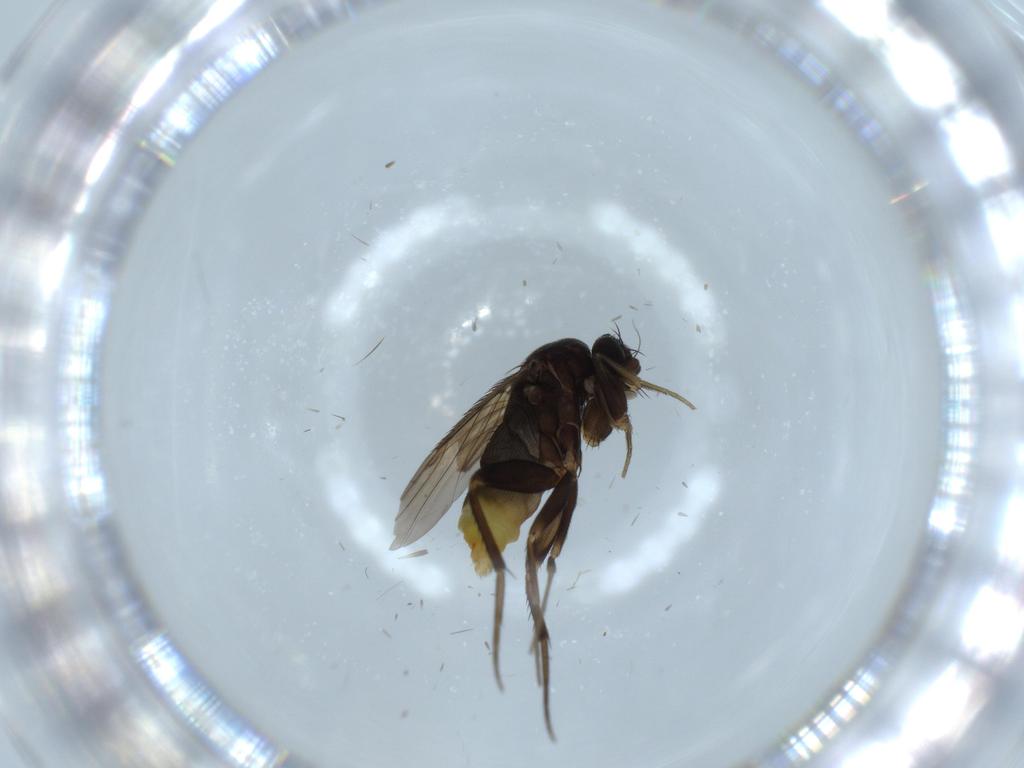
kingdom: Animalia
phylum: Arthropoda
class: Insecta
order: Diptera
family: Phoridae
